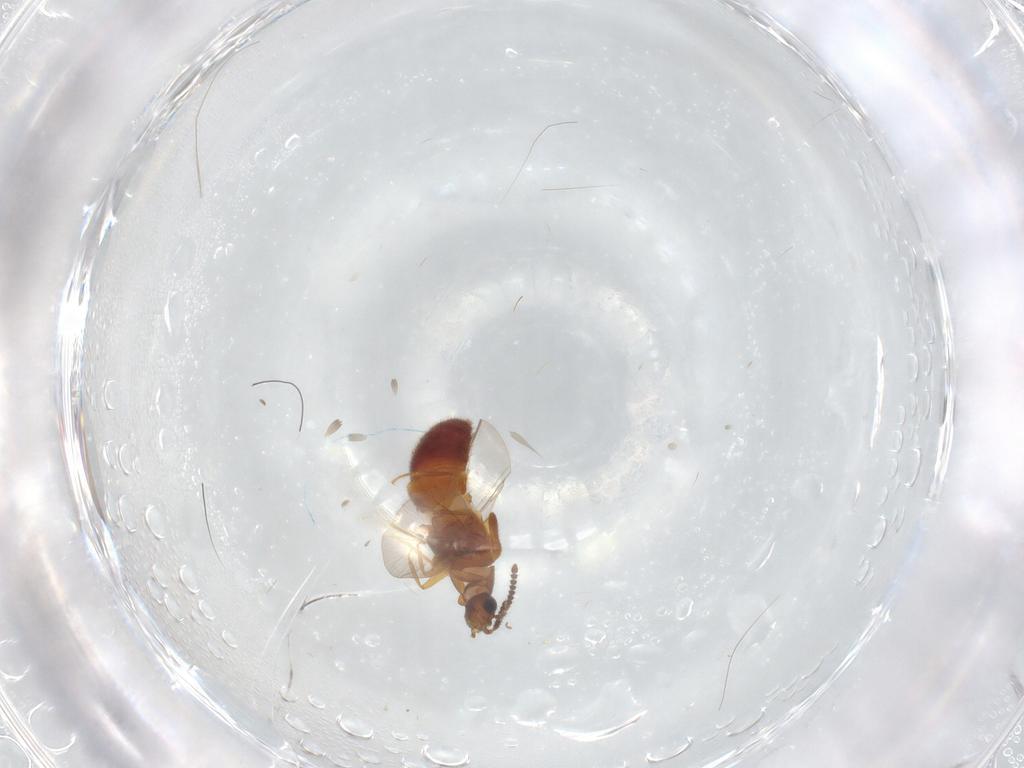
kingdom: Animalia
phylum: Arthropoda
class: Insecta
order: Coleoptera
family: Staphylinidae
